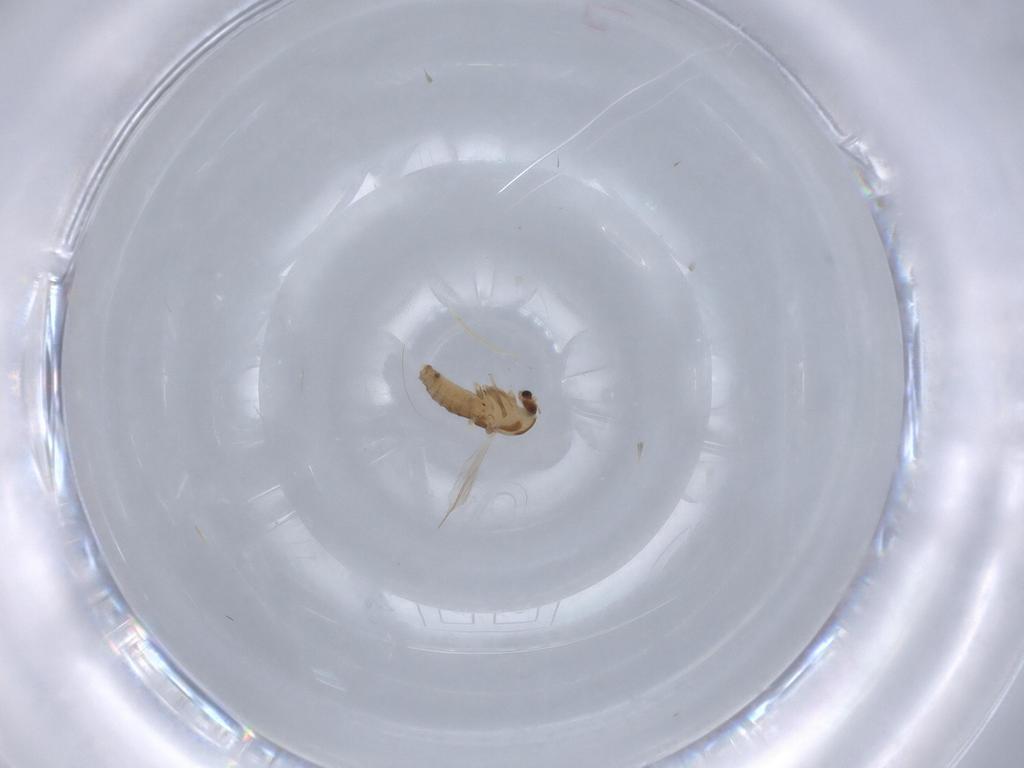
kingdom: Animalia
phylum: Arthropoda
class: Insecta
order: Diptera
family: Chironomidae
